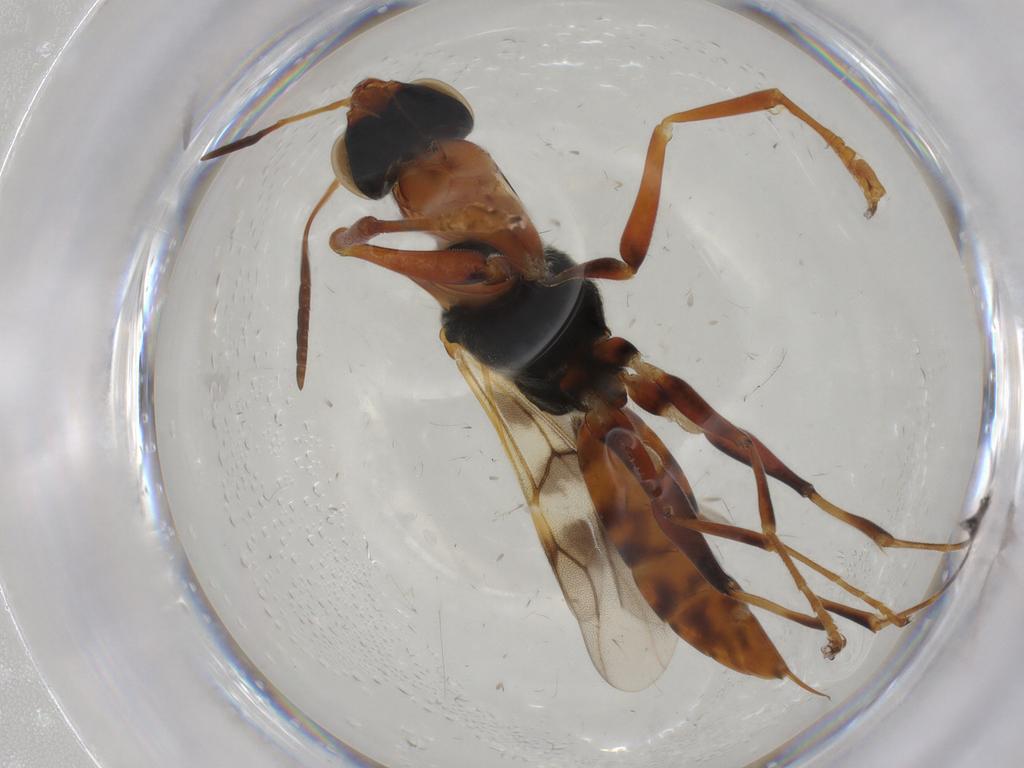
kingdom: Animalia
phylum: Arthropoda
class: Insecta
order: Hymenoptera
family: Dryinidae
